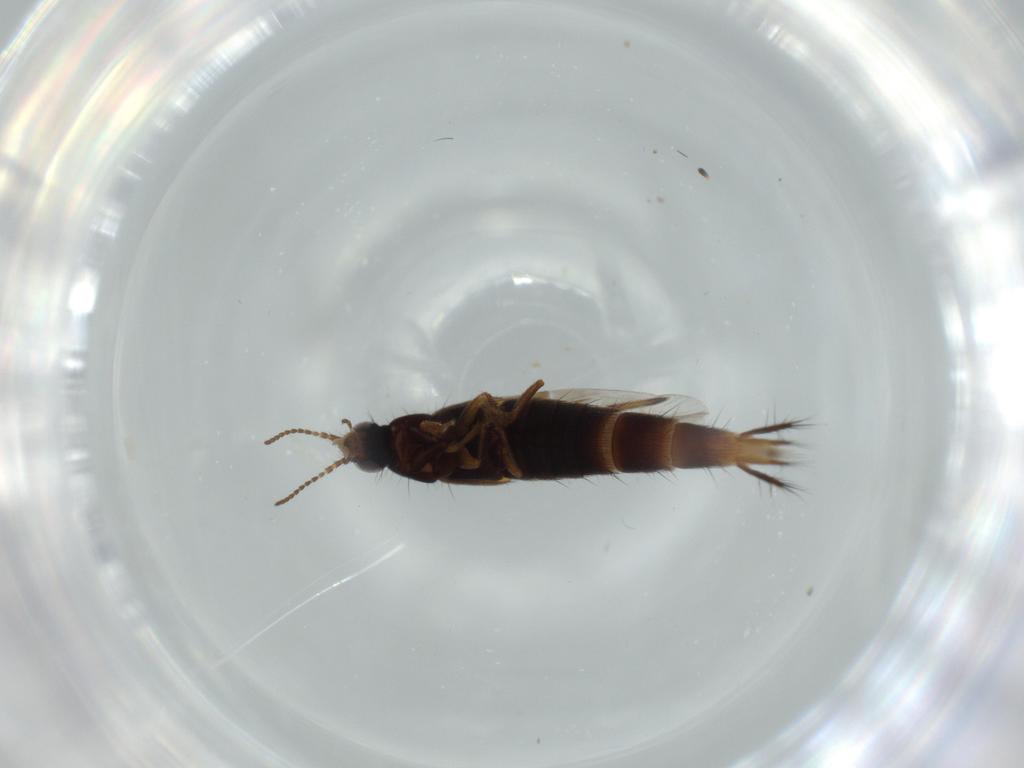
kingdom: Animalia
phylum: Arthropoda
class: Insecta
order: Coleoptera
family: Staphylinidae
